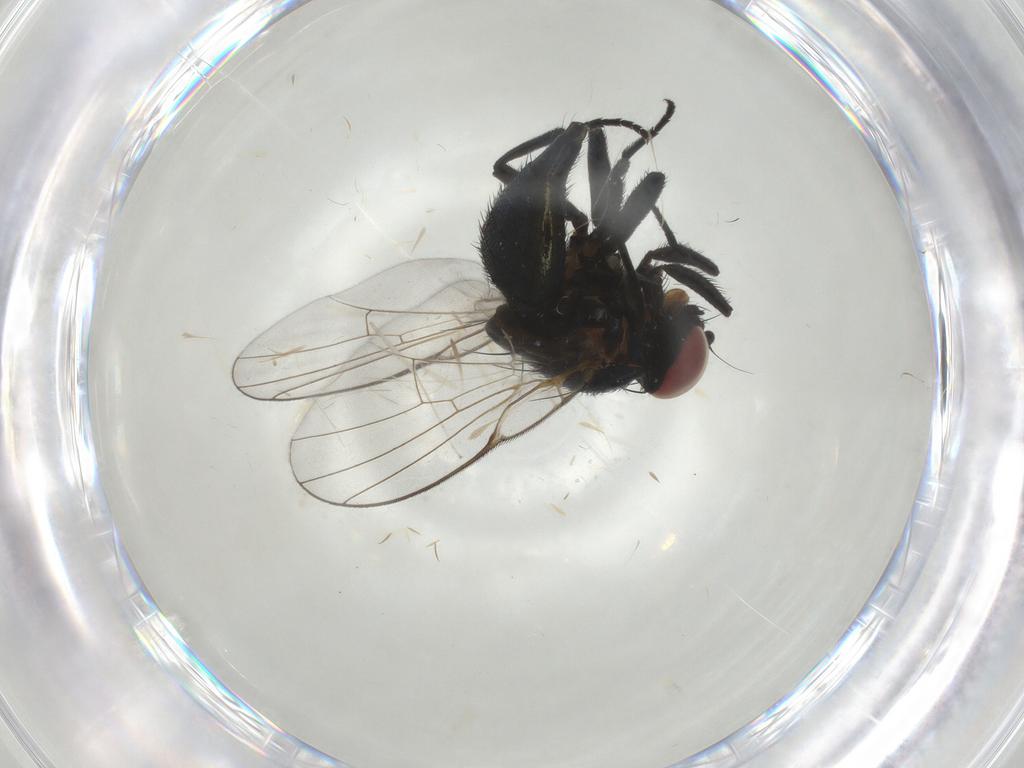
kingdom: Animalia
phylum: Arthropoda
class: Insecta
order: Diptera
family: Agromyzidae
